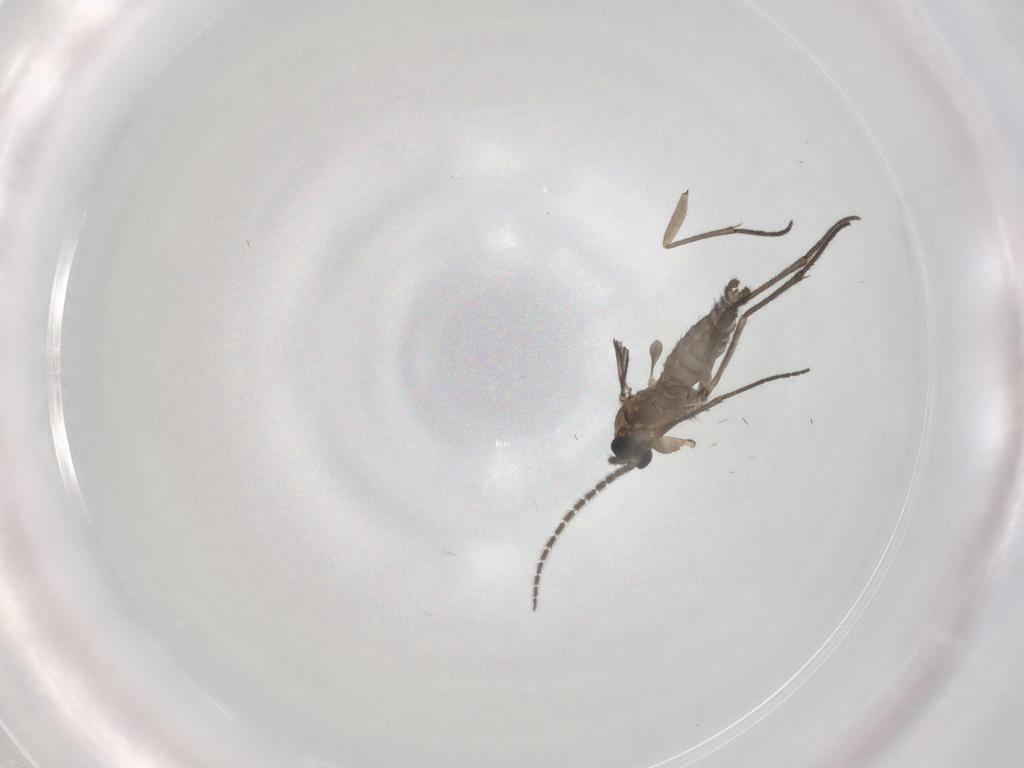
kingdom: Animalia
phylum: Arthropoda
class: Insecta
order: Diptera
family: Sciaridae
